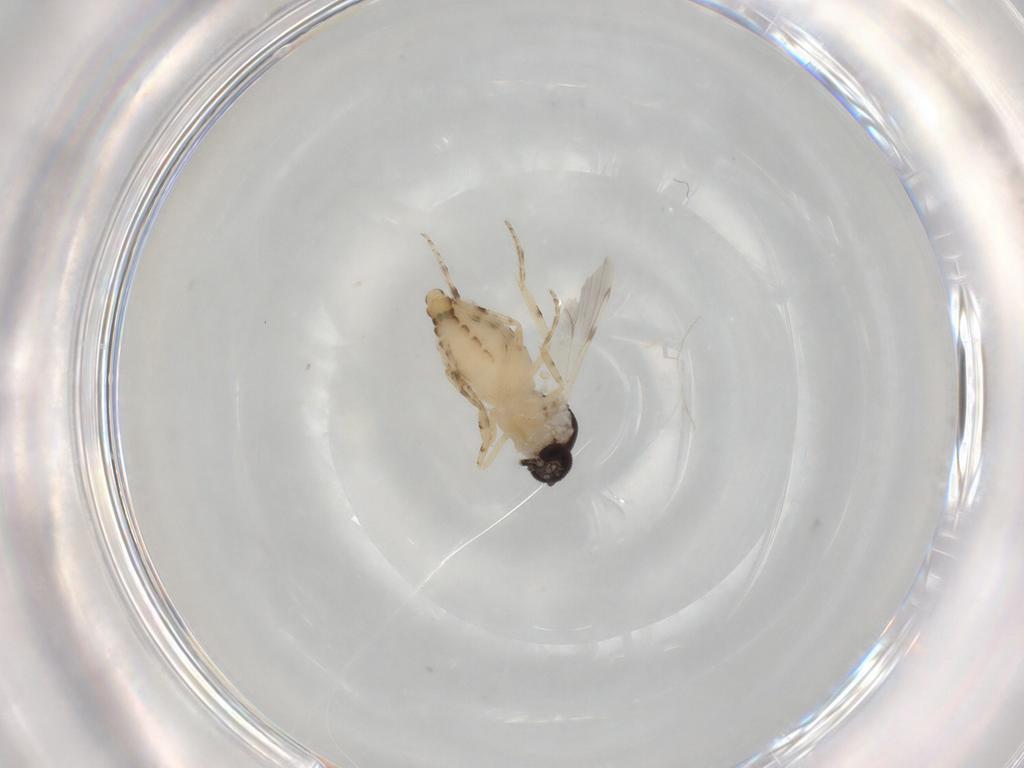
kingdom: Animalia
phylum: Arthropoda
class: Insecta
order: Diptera
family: Ceratopogonidae
